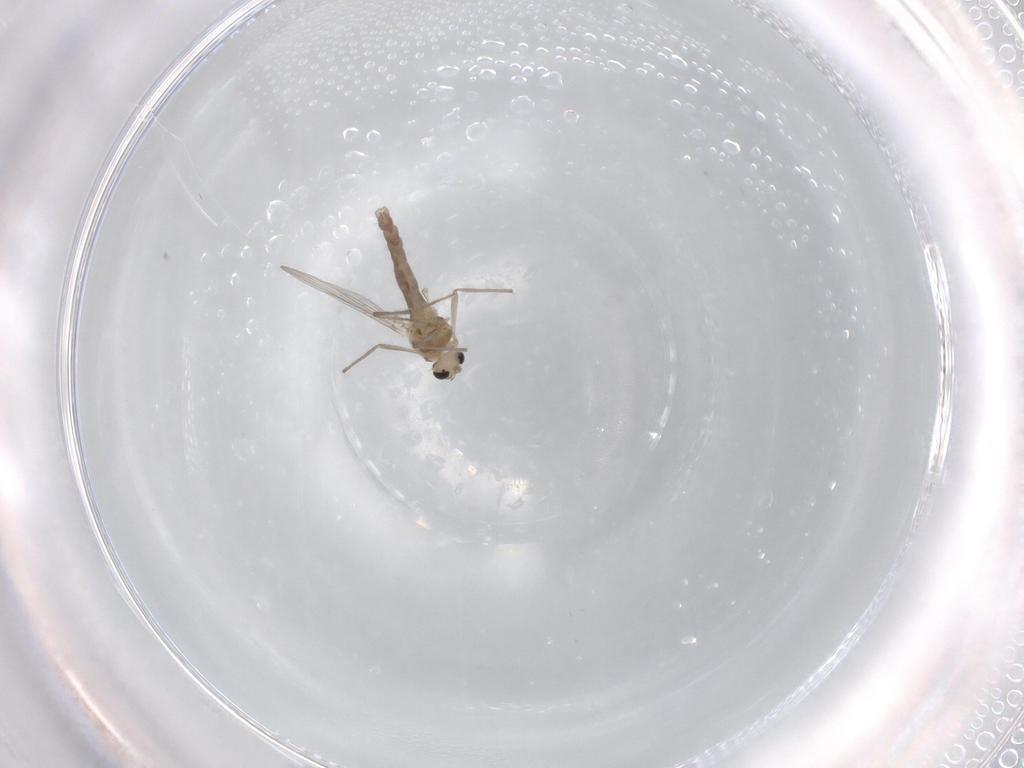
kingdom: Animalia
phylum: Arthropoda
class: Insecta
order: Diptera
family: Chironomidae
